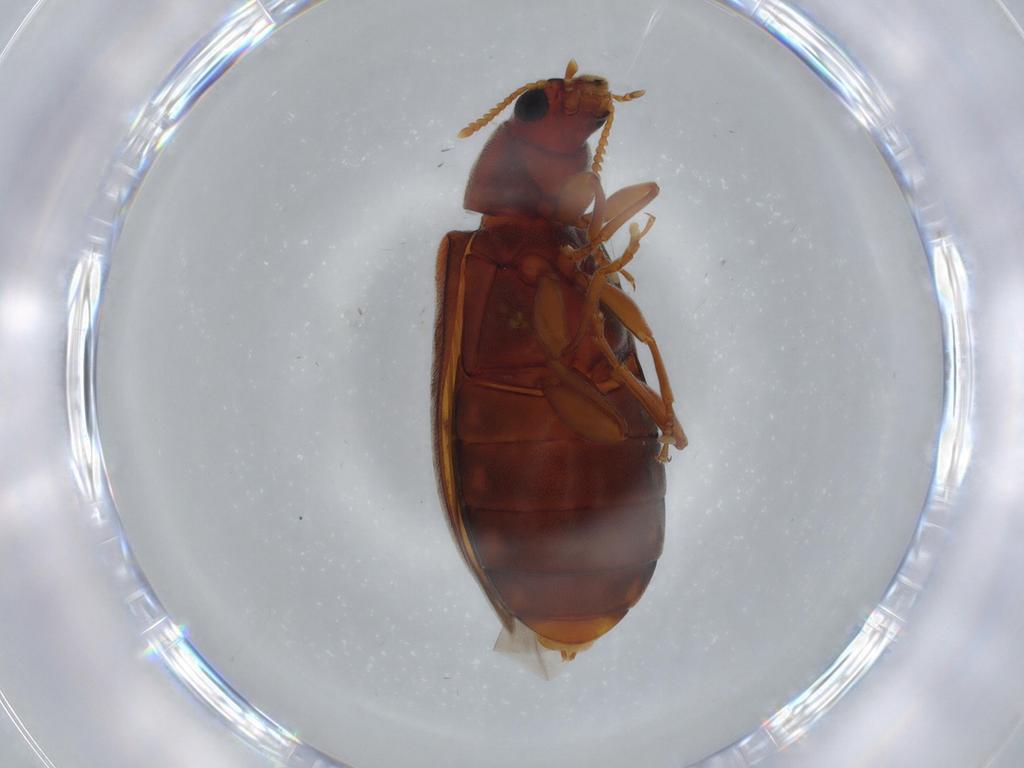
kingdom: Animalia
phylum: Arthropoda
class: Insecta
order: Coleoptera
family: Mycteridae
